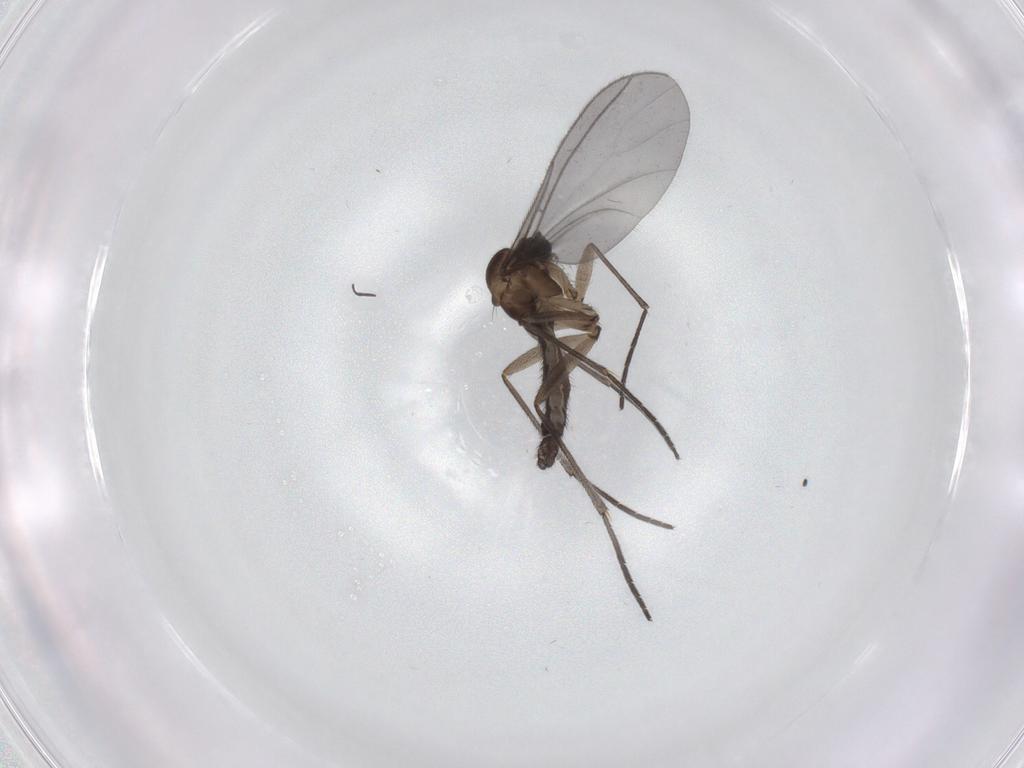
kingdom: Animalia
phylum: Arthropoda
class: Insecta
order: Diptera
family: Sciaridae
